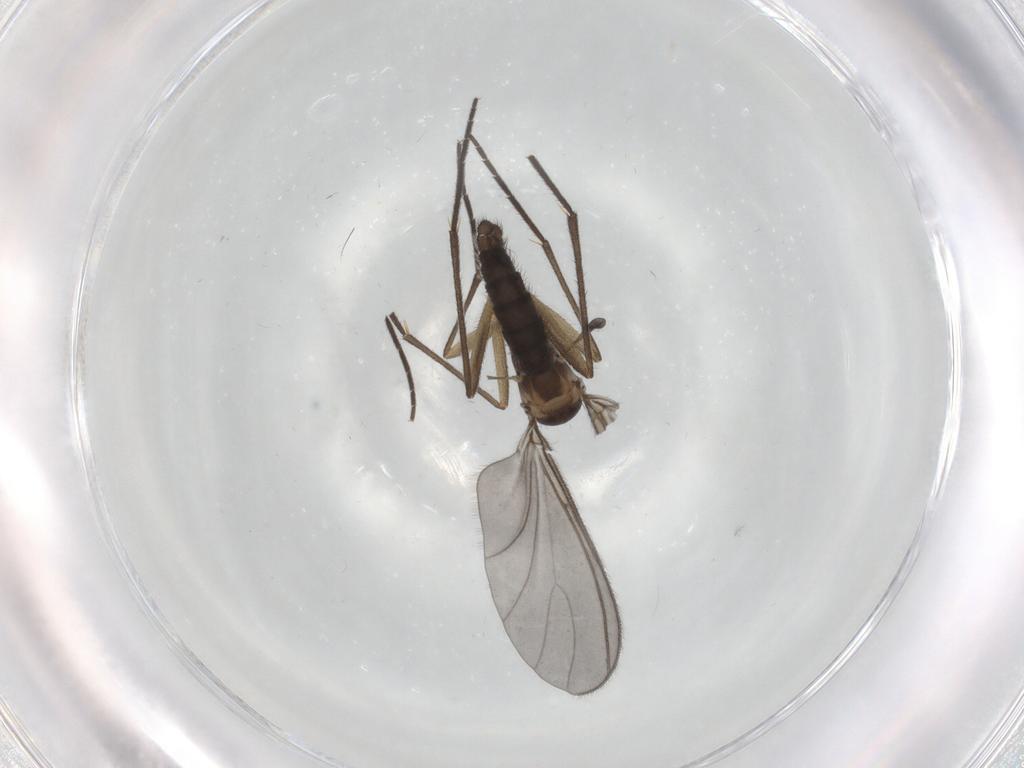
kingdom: Animalia
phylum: Arthropoda
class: Insecta
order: Diptera
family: Sciaridae
